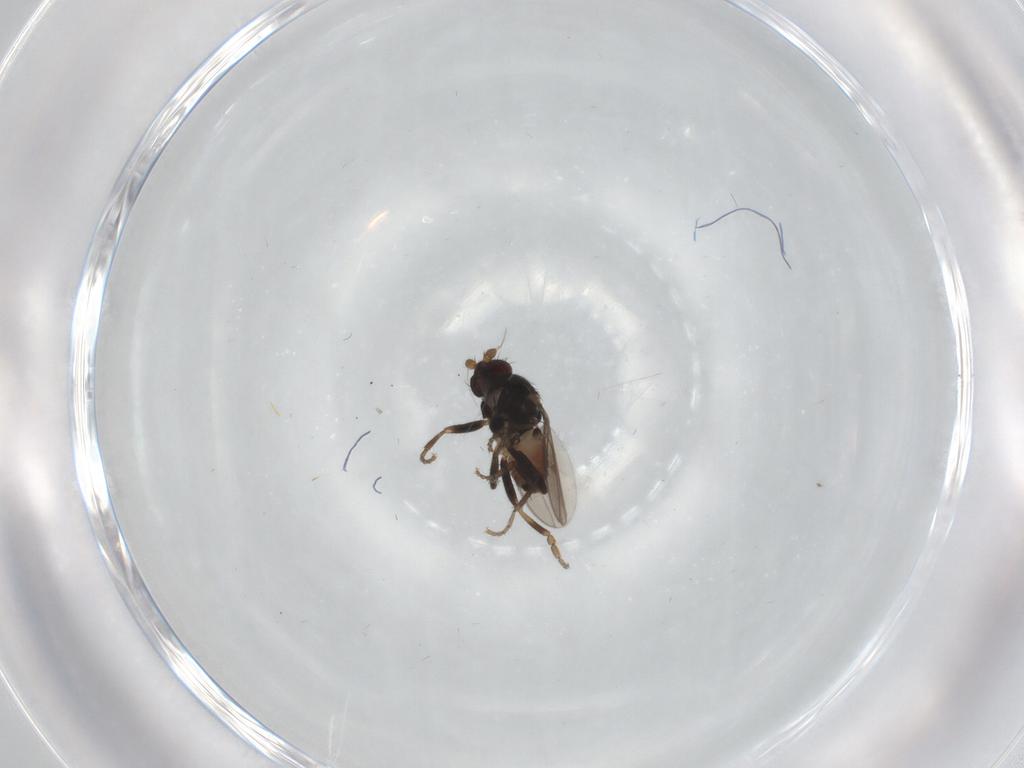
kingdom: Animalia
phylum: Arthropoda
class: Insecta
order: Diptera
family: Sphaeroceridae
